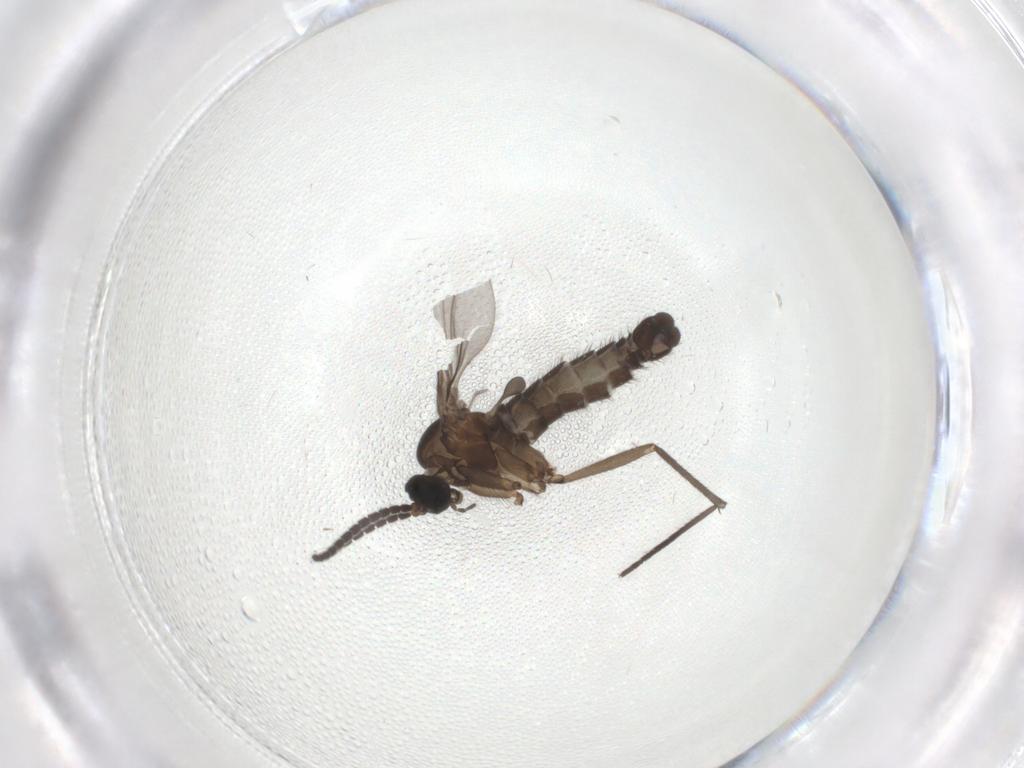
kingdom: Animalia
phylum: Arthropoda
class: Insecta
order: Diptera
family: Sciaridae
